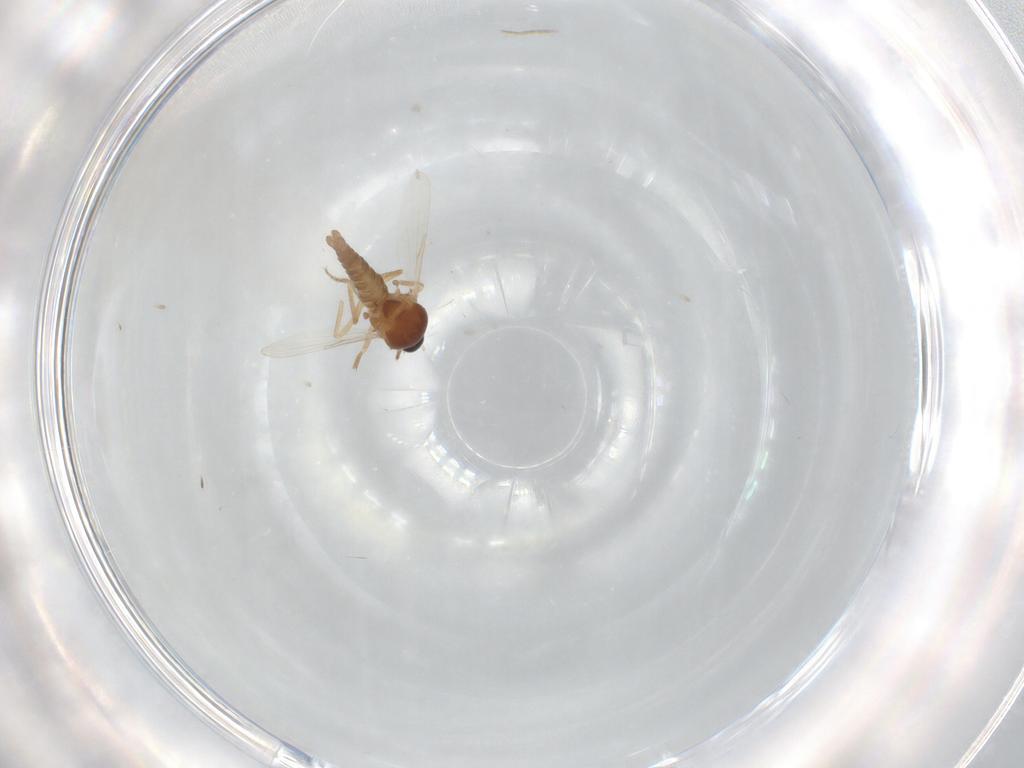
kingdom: Animalia
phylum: Arthropoda
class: Insecta
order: Diptera
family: Ceratopogonidae
